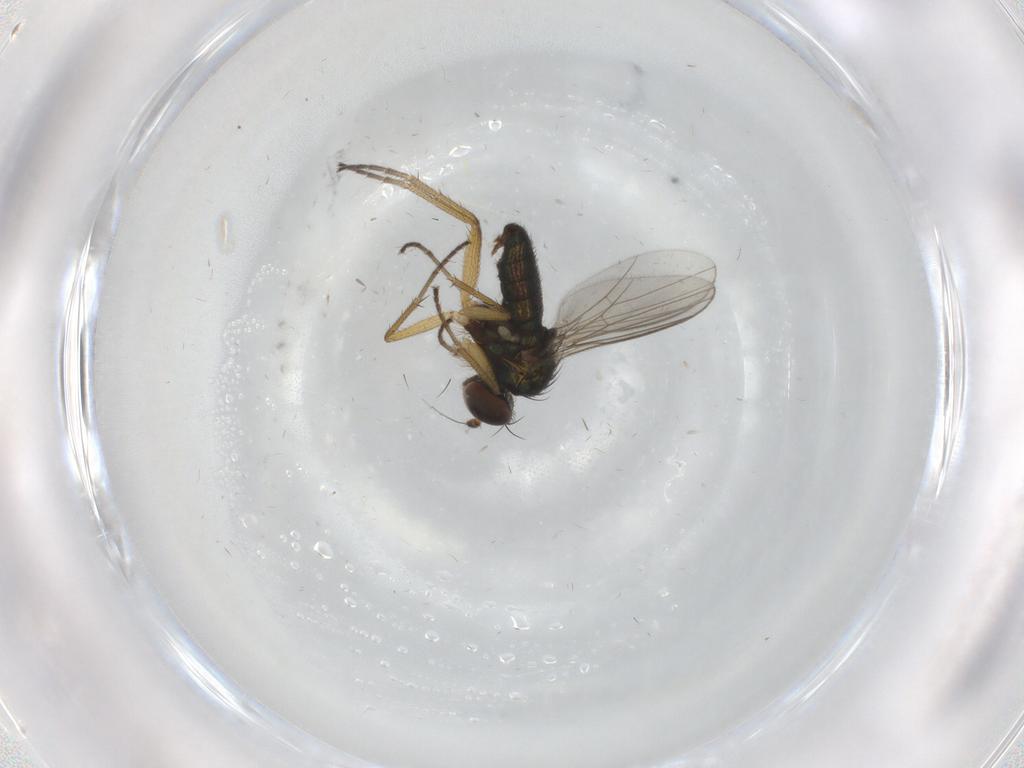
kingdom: Animalia
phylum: Arthropoda
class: Insecta
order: Diptera
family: Dolichopodidae
